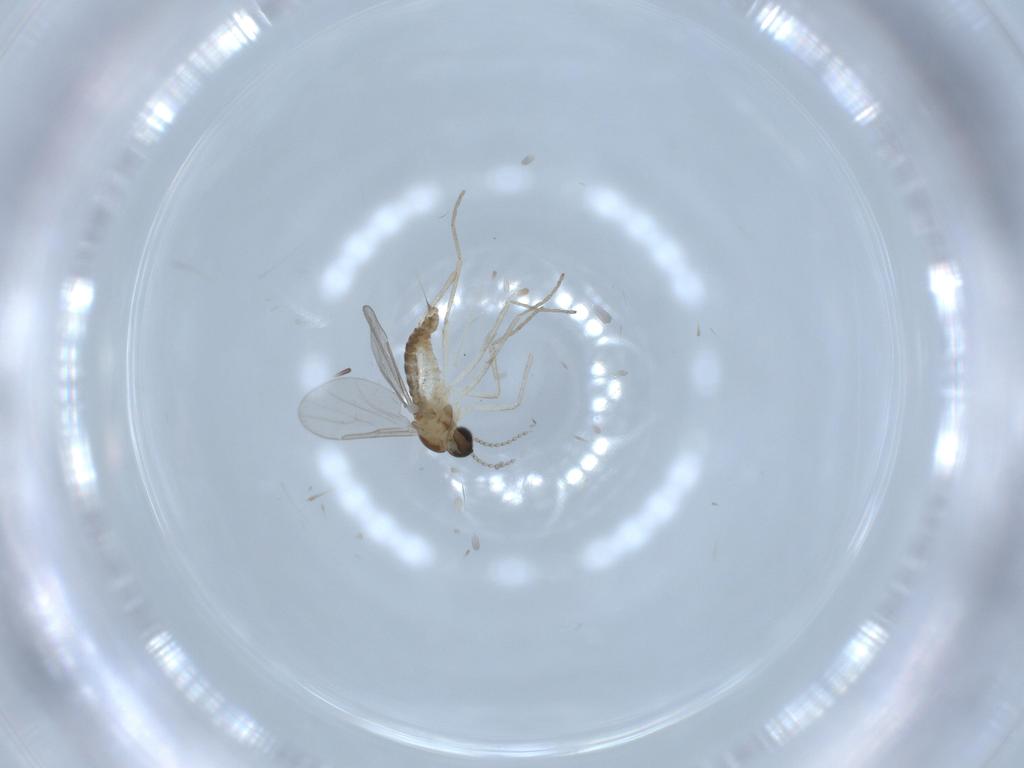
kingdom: Animalia
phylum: Arthropoda
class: Insecta
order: Diptera
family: Cecidomyiidae
